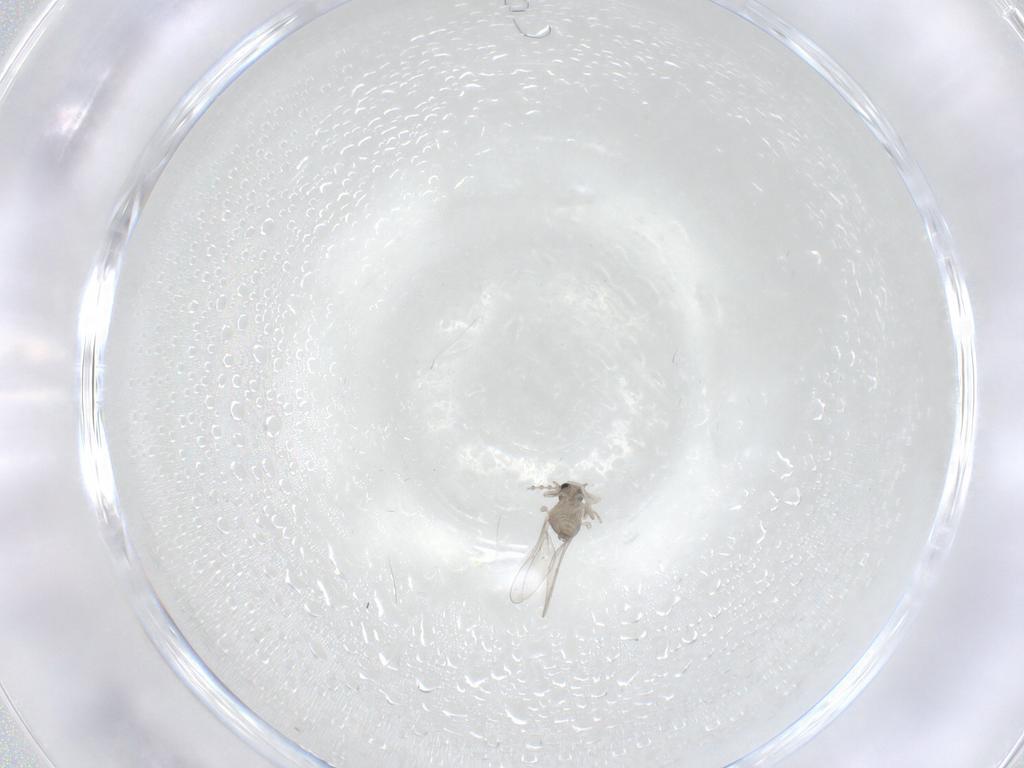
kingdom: Animalia
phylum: Arthropoda
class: Insecta
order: Diptera
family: Cecidomyiidae
